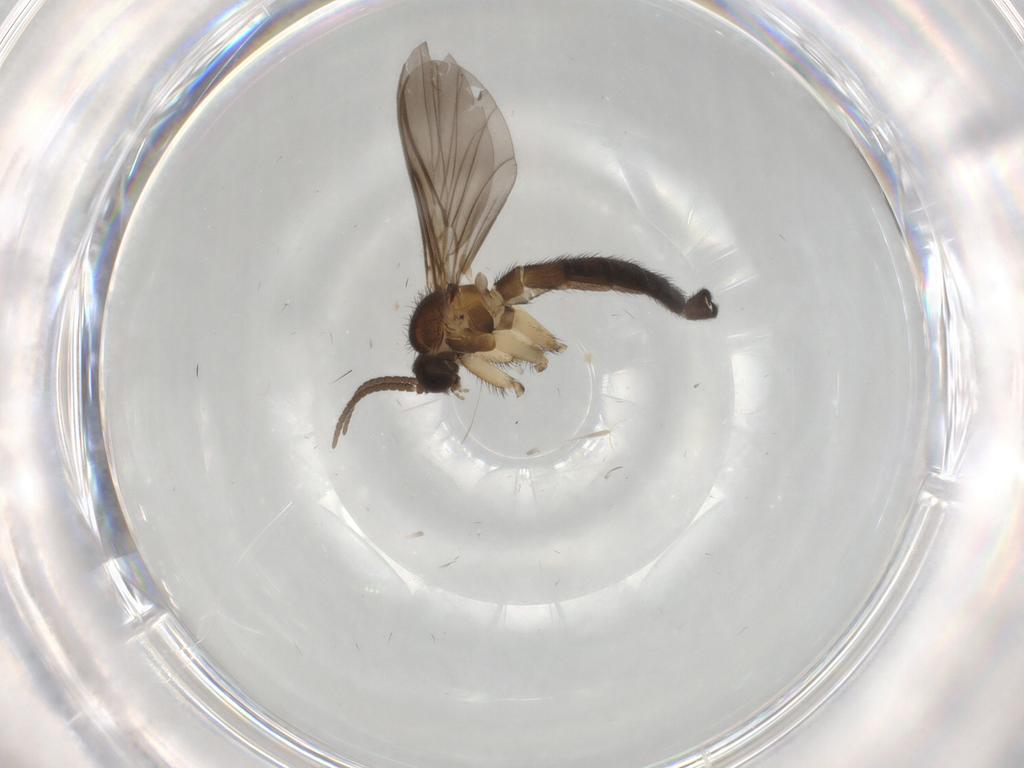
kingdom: Animalia
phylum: Arthropoda
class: Insecta
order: Diptera
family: Keroplatidae
